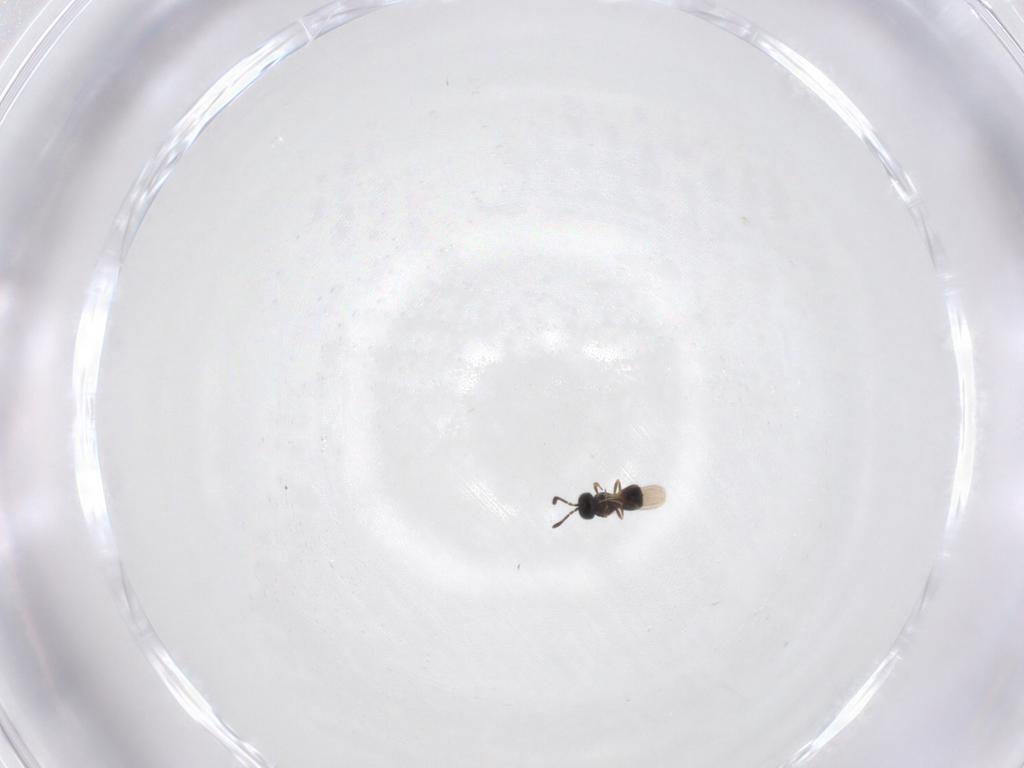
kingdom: Animalia
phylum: Arthropoda
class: Insecta
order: Hymenoptera
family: Scelionidae
